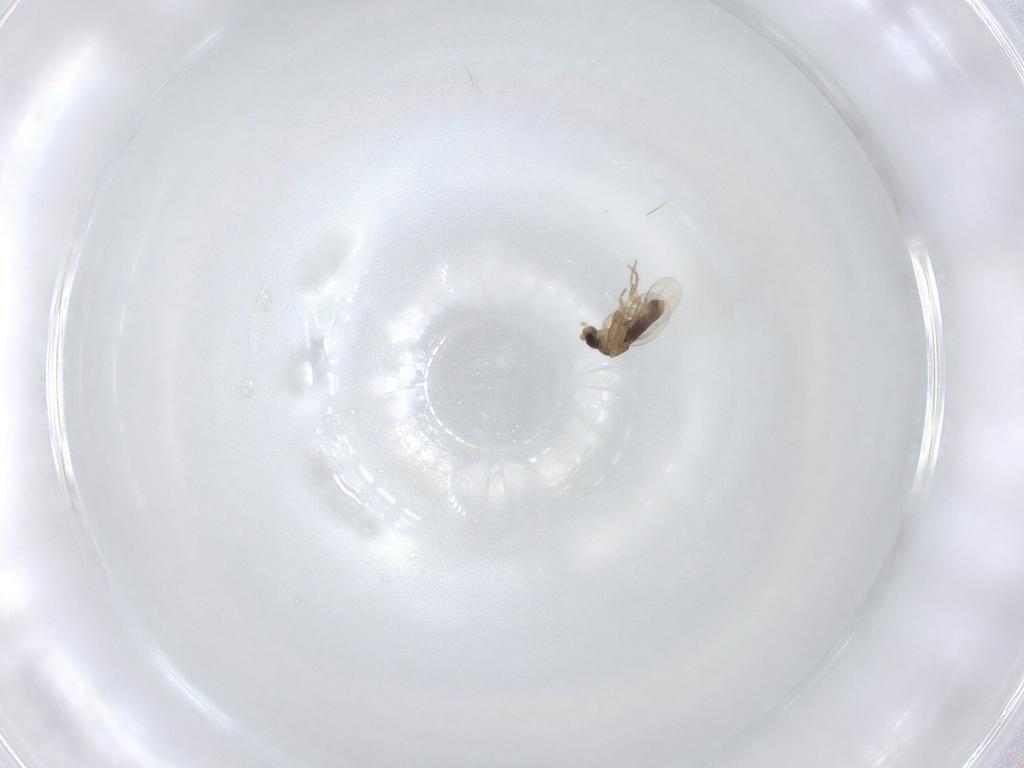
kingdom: Animalia
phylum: Arthropoda
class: Insecta
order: Diptera
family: Phoridae
